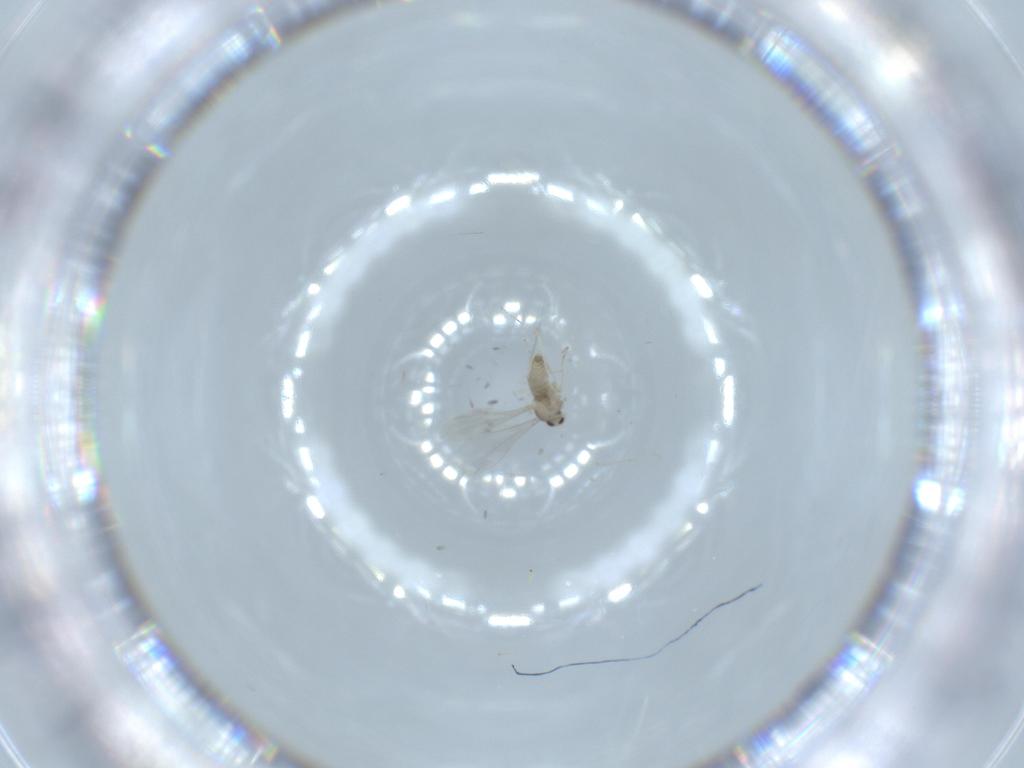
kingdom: Animalia
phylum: Arthropoda
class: Insecta
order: Diptera
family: Cecidomyiidae
